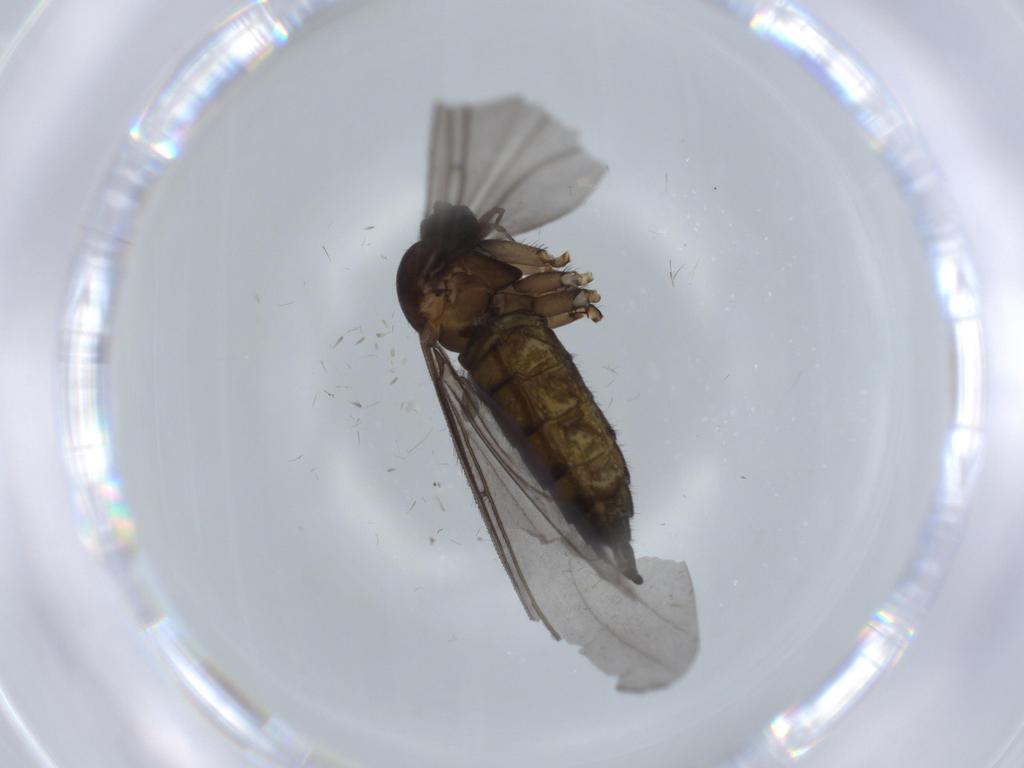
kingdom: Animalia
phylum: Arthropoda
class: Insecta
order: Diptera
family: Sciaridae
